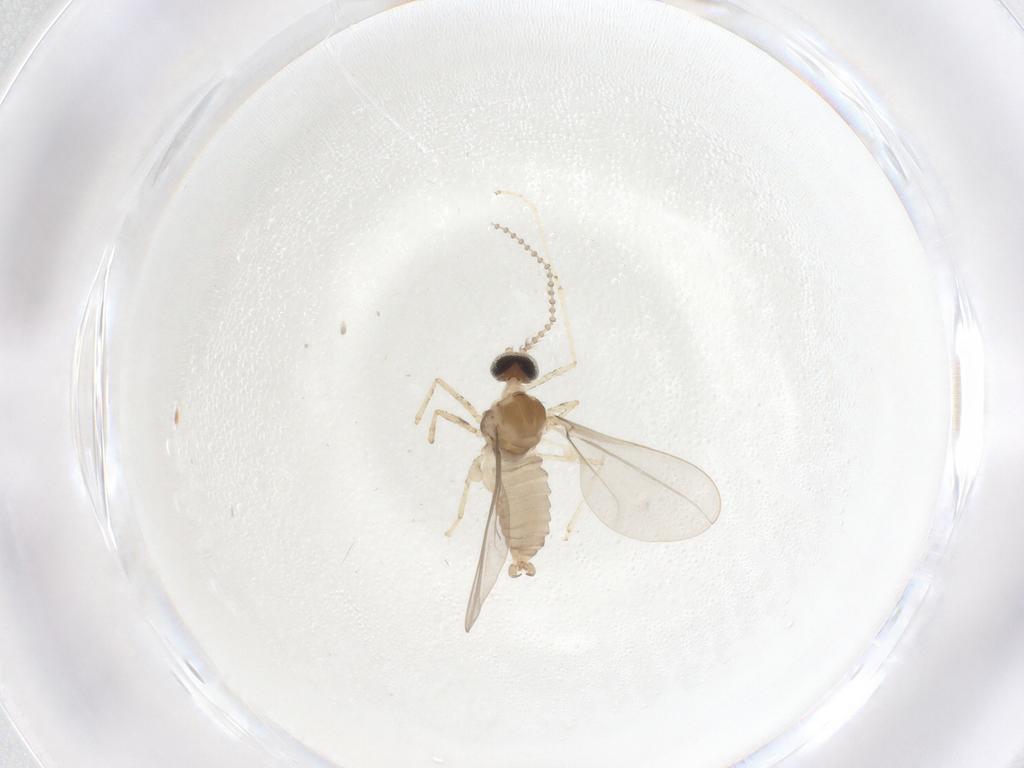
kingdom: Animalia
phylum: Arthropoda
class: Insecta
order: Diptera
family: Cecidomyiidae
